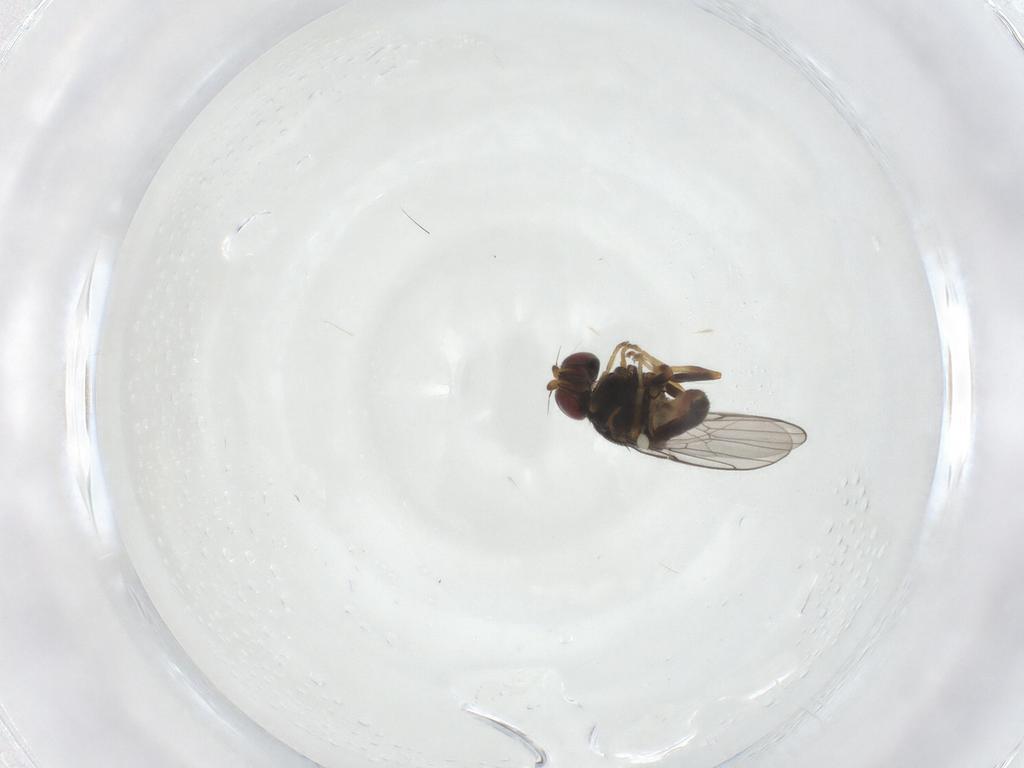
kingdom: Animalia
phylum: Arthropoda
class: Insecta
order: Diptera
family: Chloropidae
